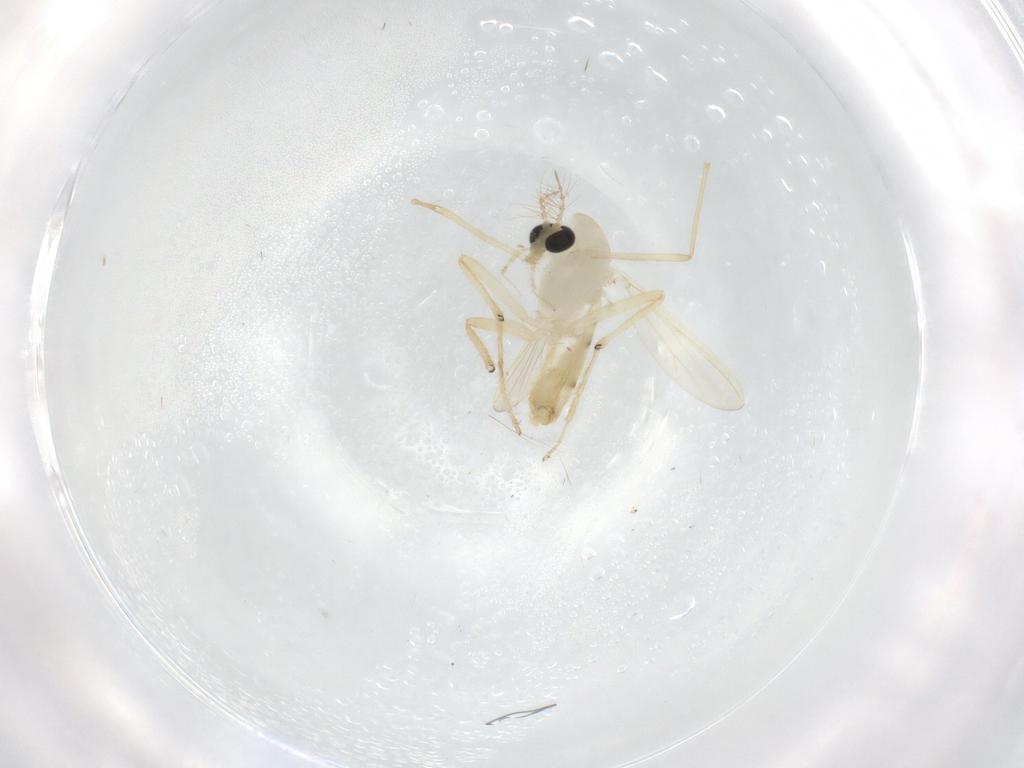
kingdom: Animalia
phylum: Arthropoda
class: Insecta
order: Diptera
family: Chironomidae
